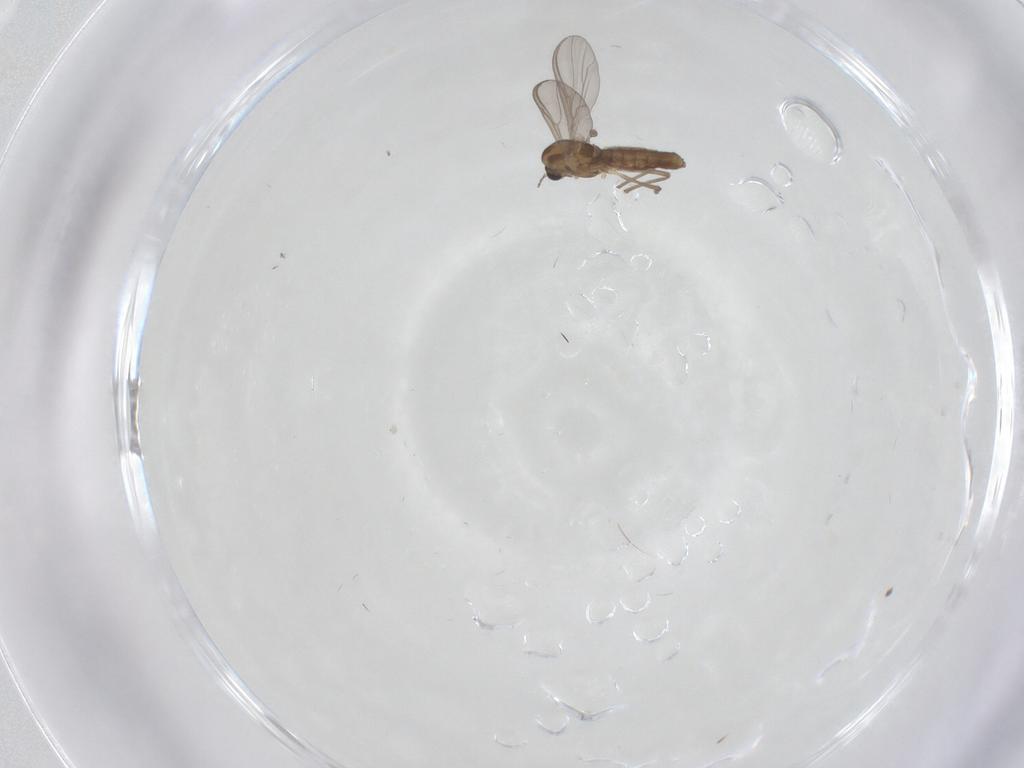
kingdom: Animalia
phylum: Arthropoda
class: Insecta
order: Diptera
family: Chironomidae
